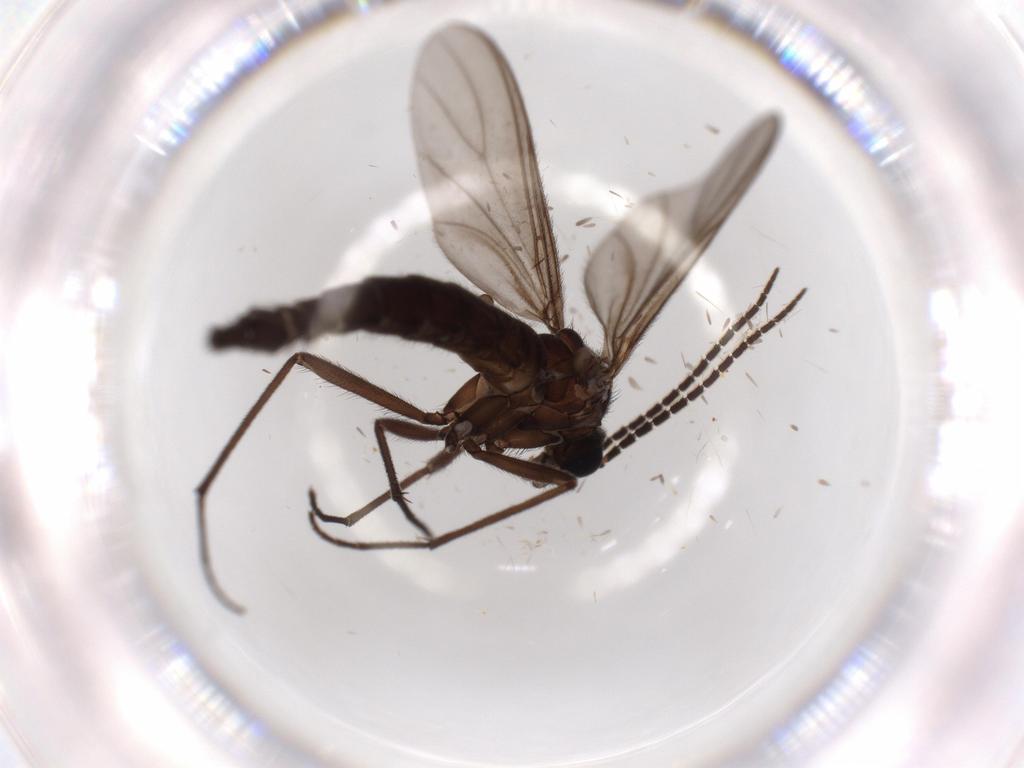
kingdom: Animalia
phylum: Arthropoda
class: Insecta
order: Diptera
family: Sciaridae
